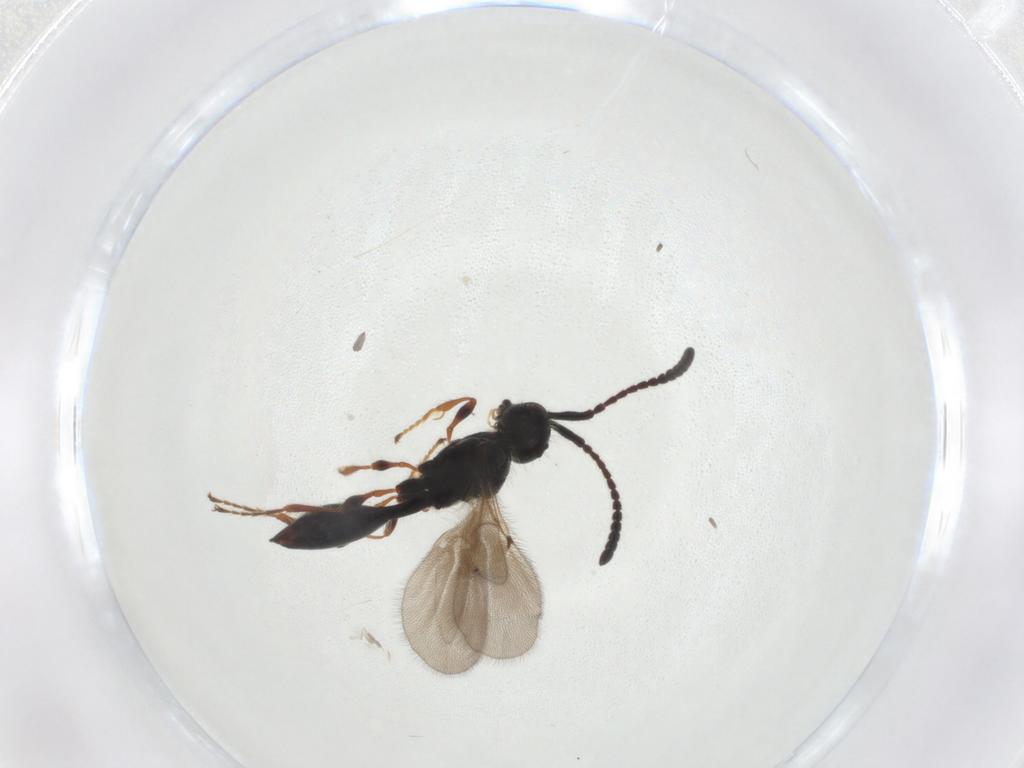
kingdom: Animalia
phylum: Arthropoda
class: Insecta
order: Hymenoptera
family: Diapriidae
